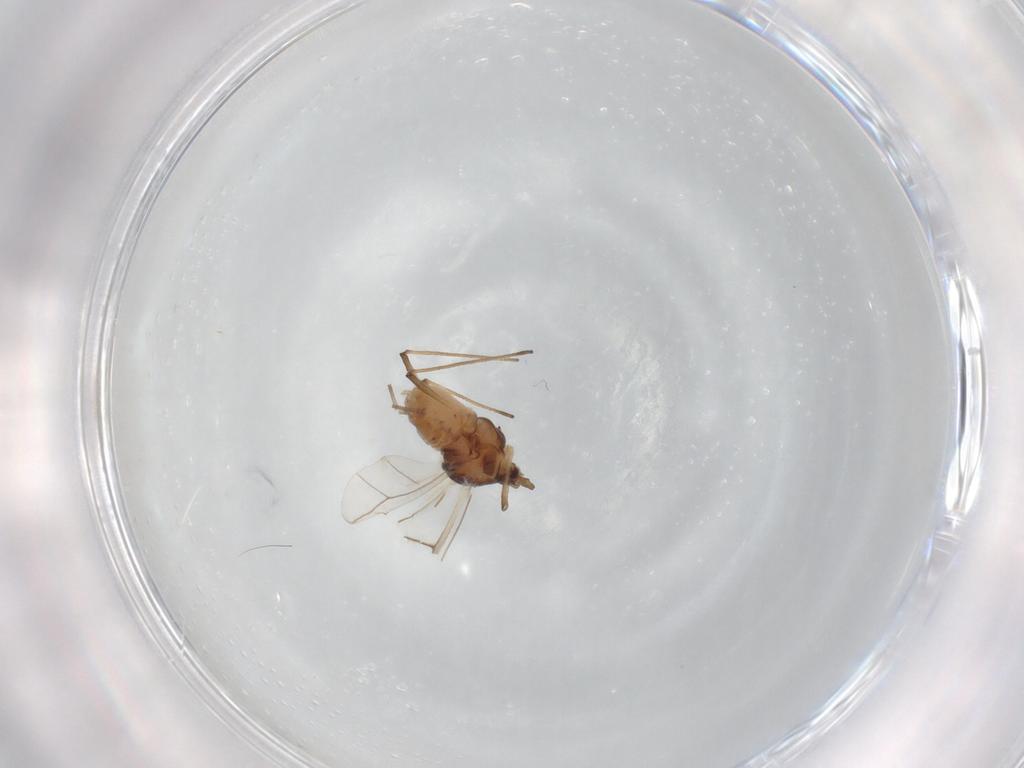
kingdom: Animalia
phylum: Arthropoda
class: Insecta
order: Hemiptera
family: Aphididae
